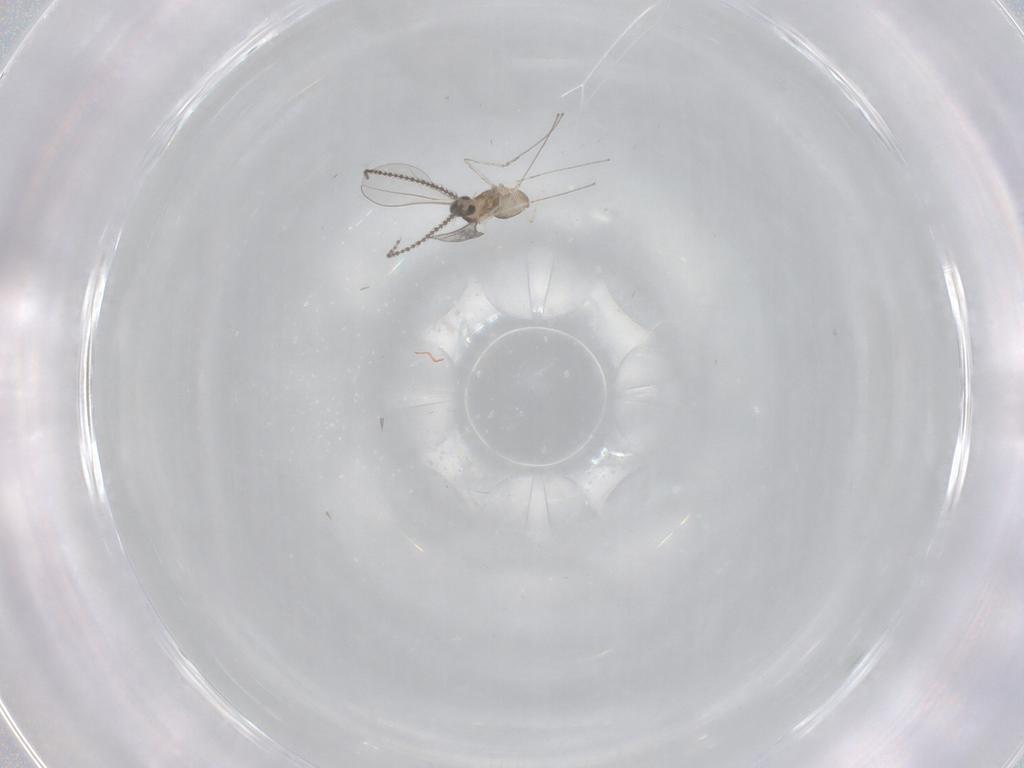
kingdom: Animalia
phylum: Arthropoda
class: Insecta
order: Diptera
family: Cecidomyiidae
